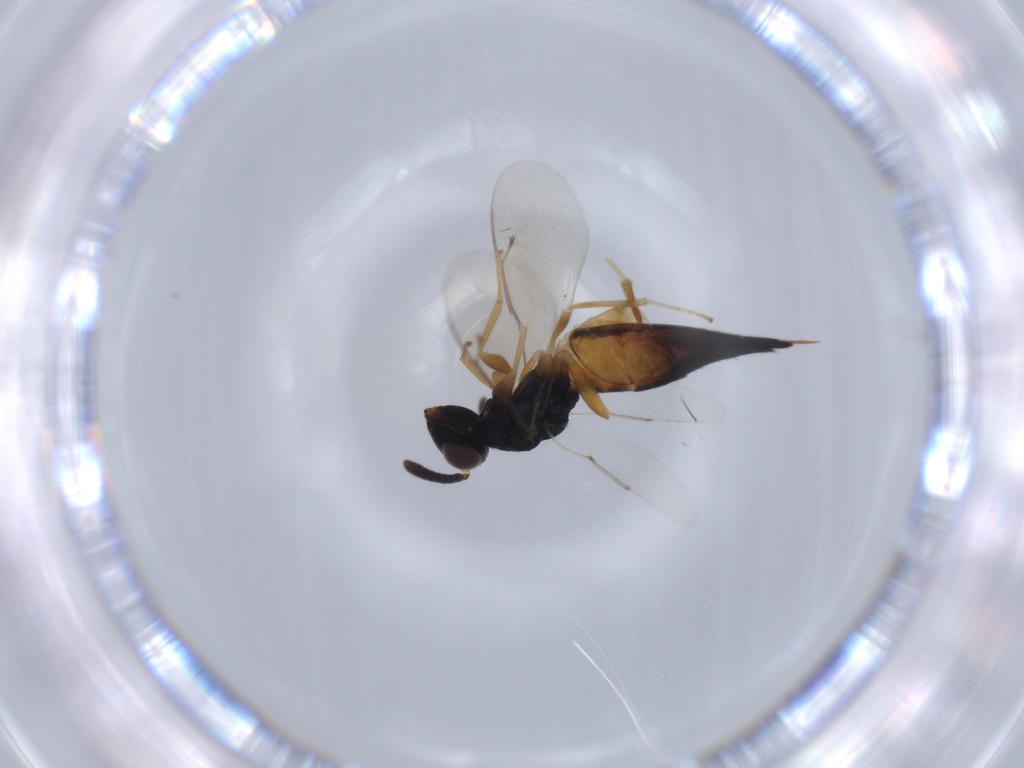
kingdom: Animalia
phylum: Arthropoda
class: Insecta
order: Hymenoptera
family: Pteromalidae
